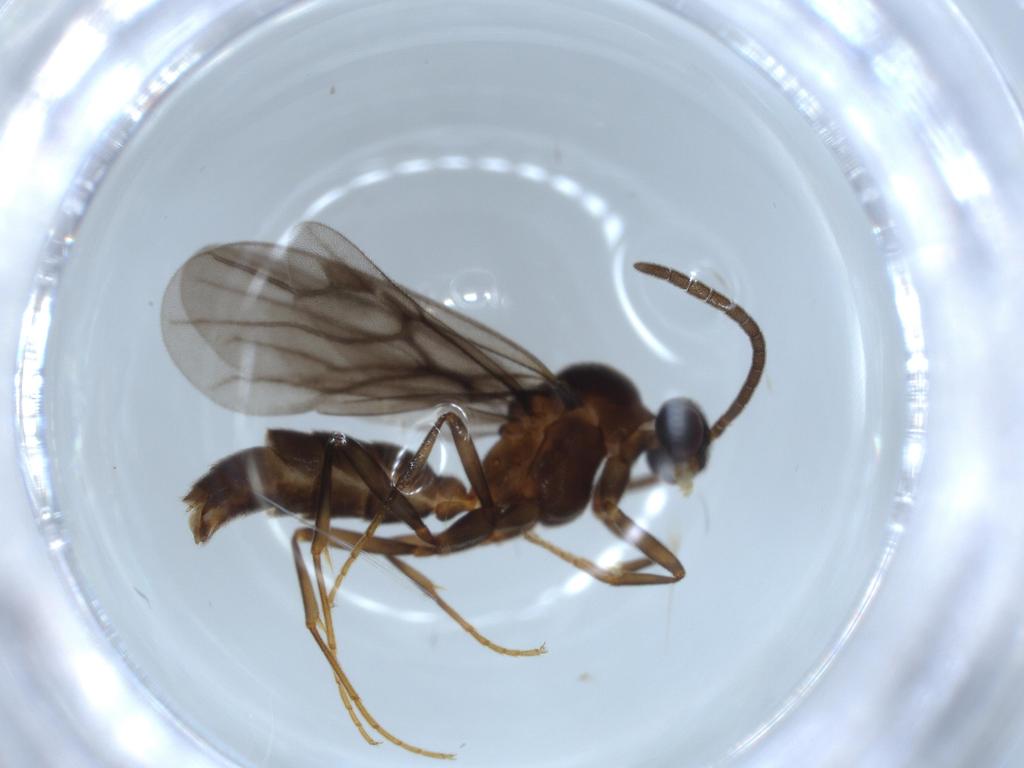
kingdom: Animalia
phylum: Arthropoda
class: Insecta
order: Hymenoptera
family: Formicidae
